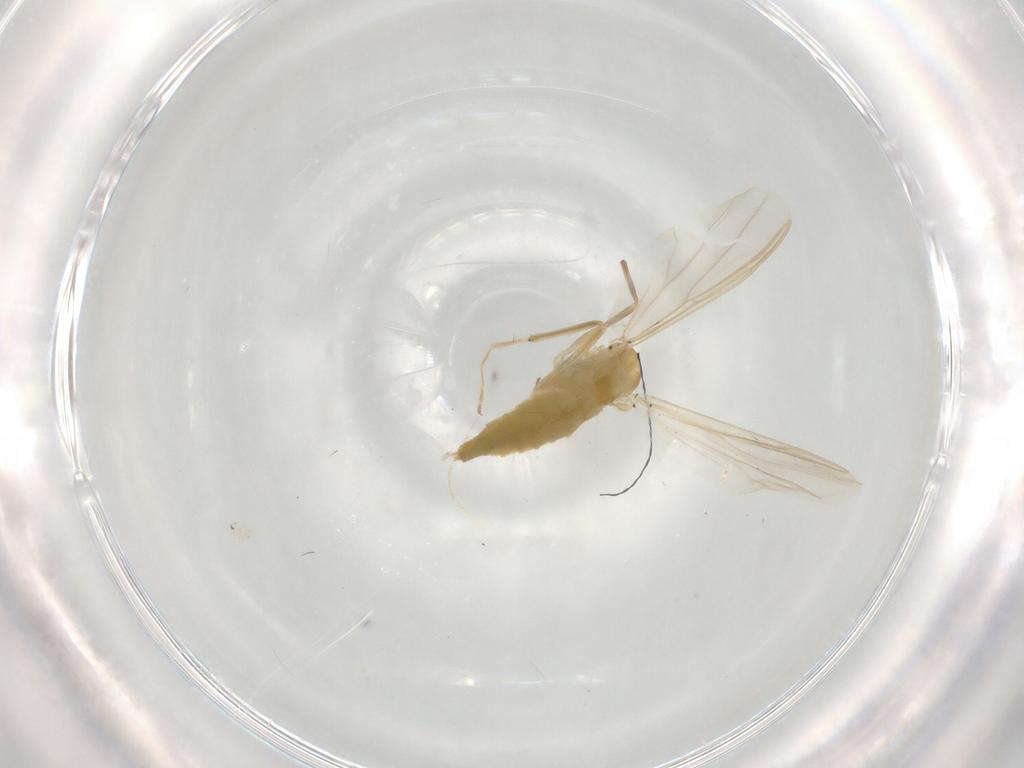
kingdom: Animalia
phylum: Arthropoda
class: Insecta
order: Diptera
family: Chironomidae
